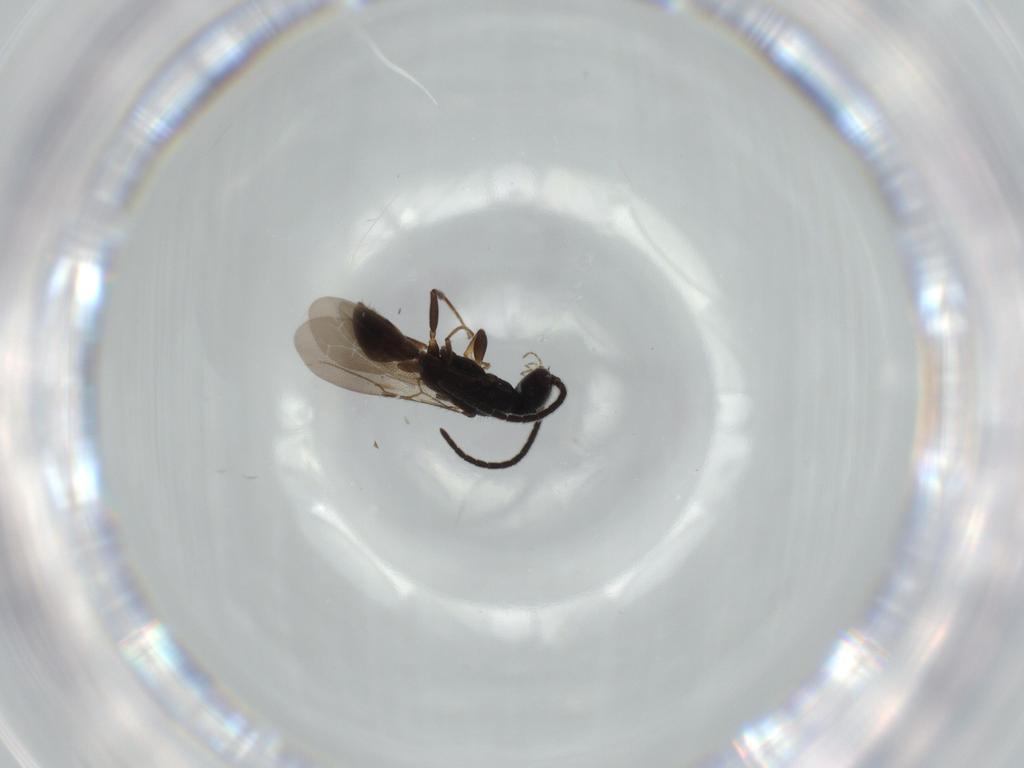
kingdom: Animalia
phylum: Arthropoda
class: Insecta
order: Hymenoptera
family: Bethylidae
